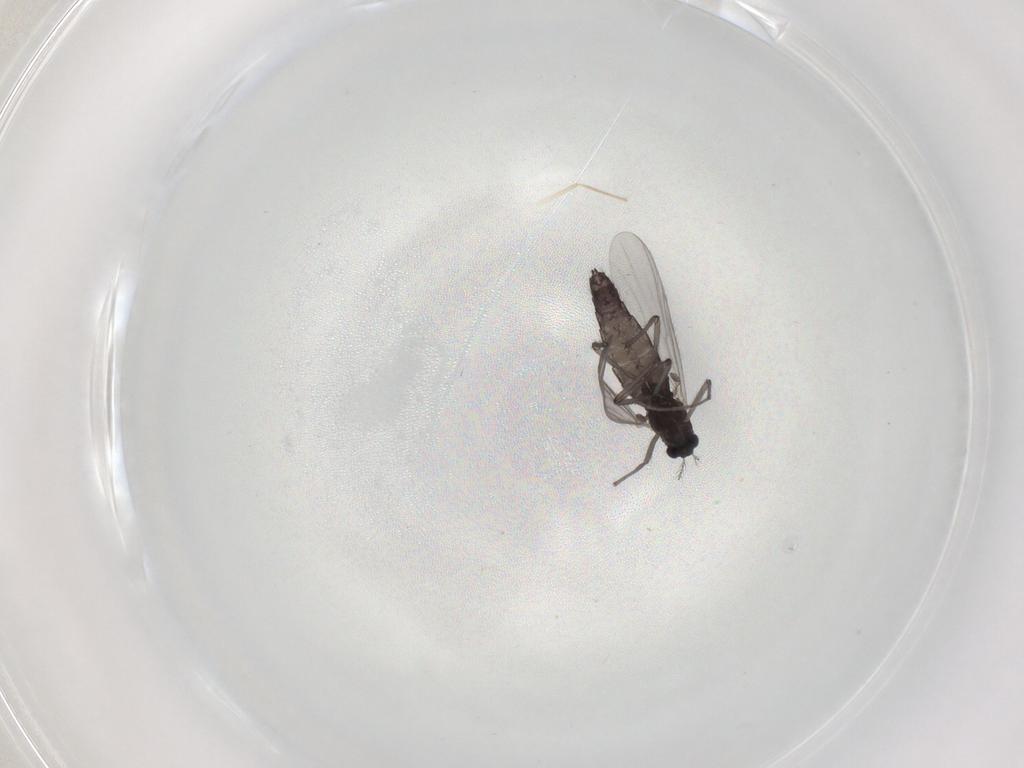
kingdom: Animalia
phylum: Arthropoda
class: Insecta
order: Diptera
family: Chironomidae
